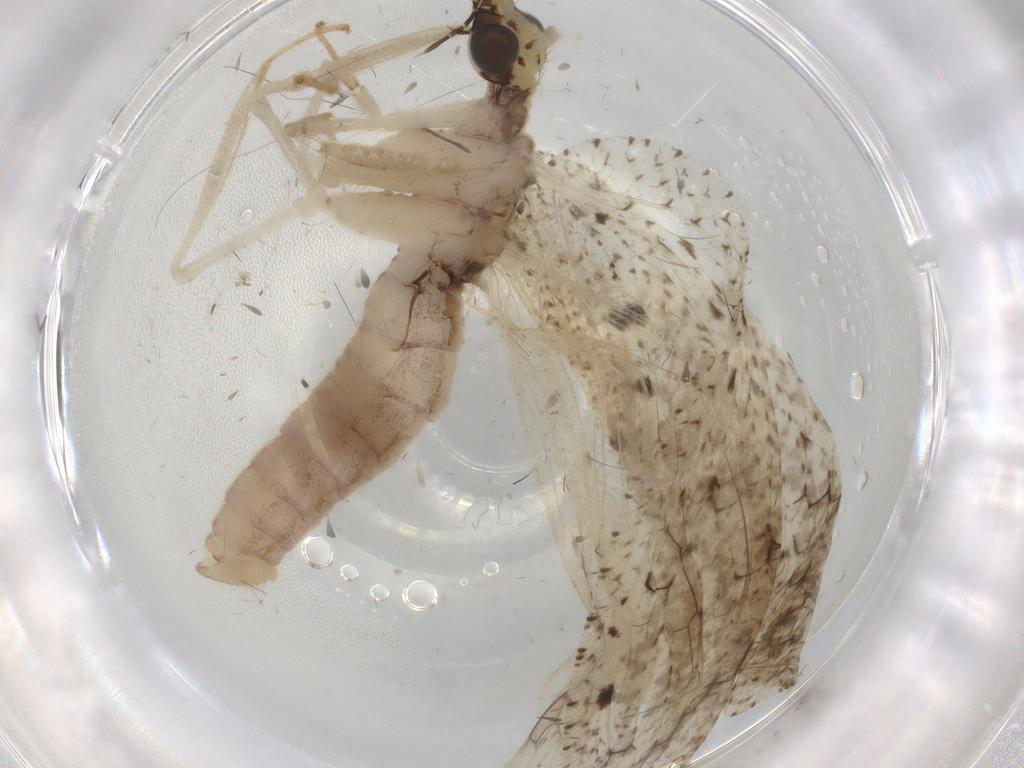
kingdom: Animalia
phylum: Arthropoda
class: Insecta
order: Neuroptera
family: Hemerobiidae
